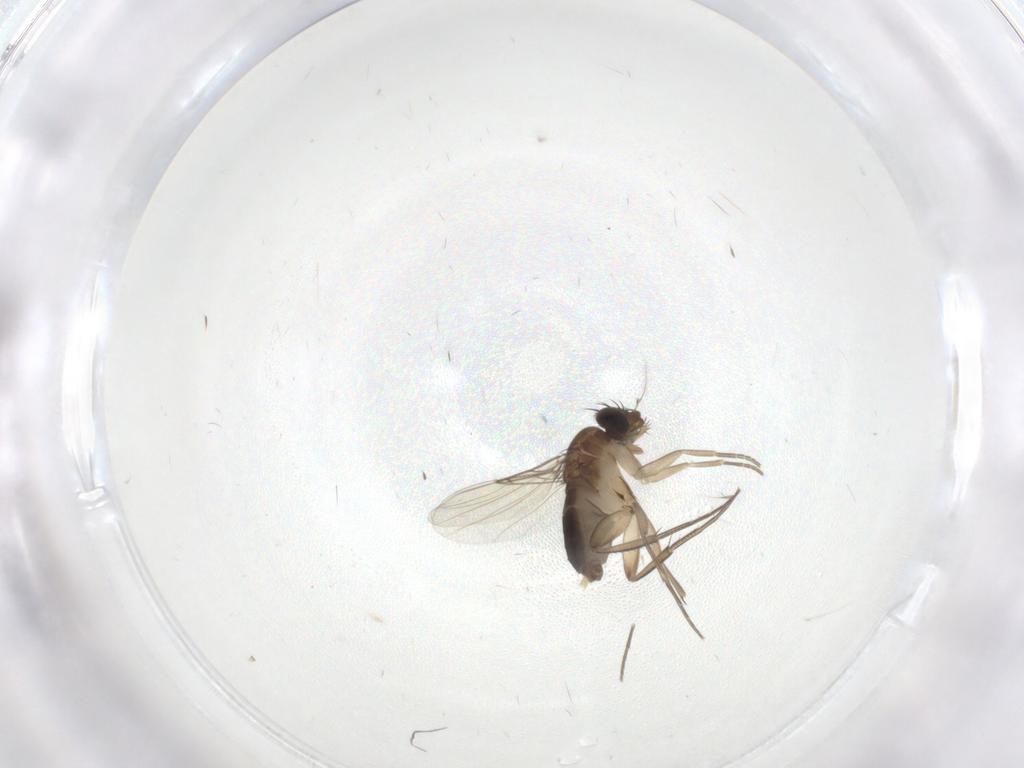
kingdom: Animalia
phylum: Arthropoda
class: Insecta
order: Diptera
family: Phoridae
